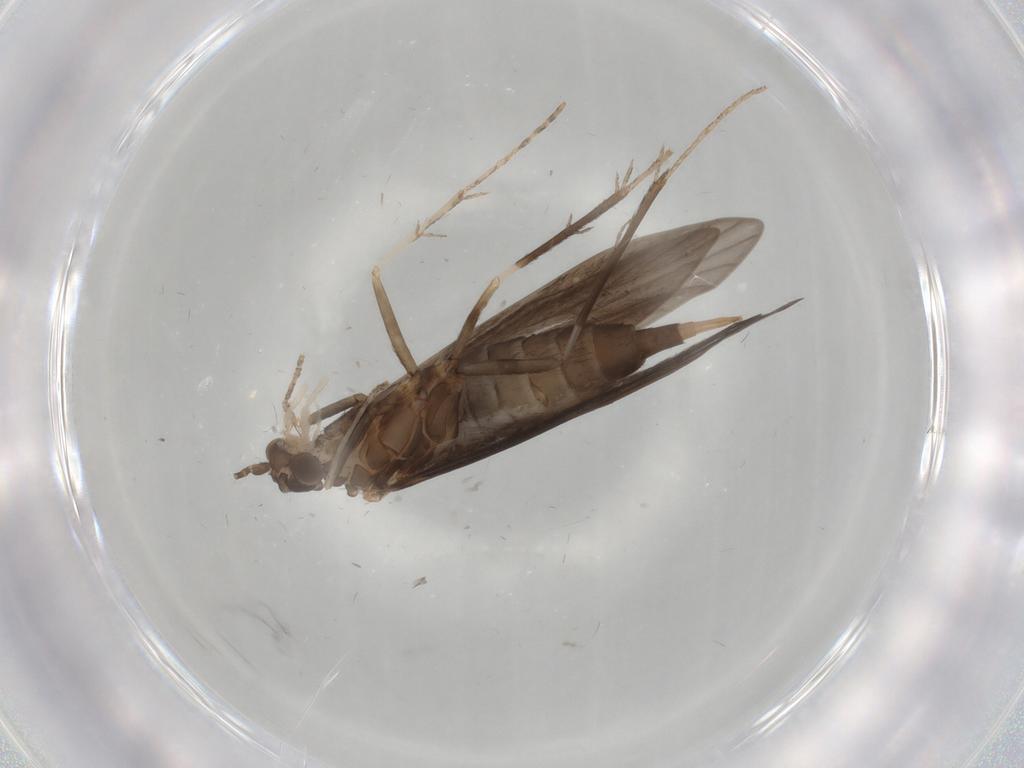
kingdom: Animalia
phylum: Arthropoda
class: Insecta
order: Trichoptera
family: Xiphocentronidae
